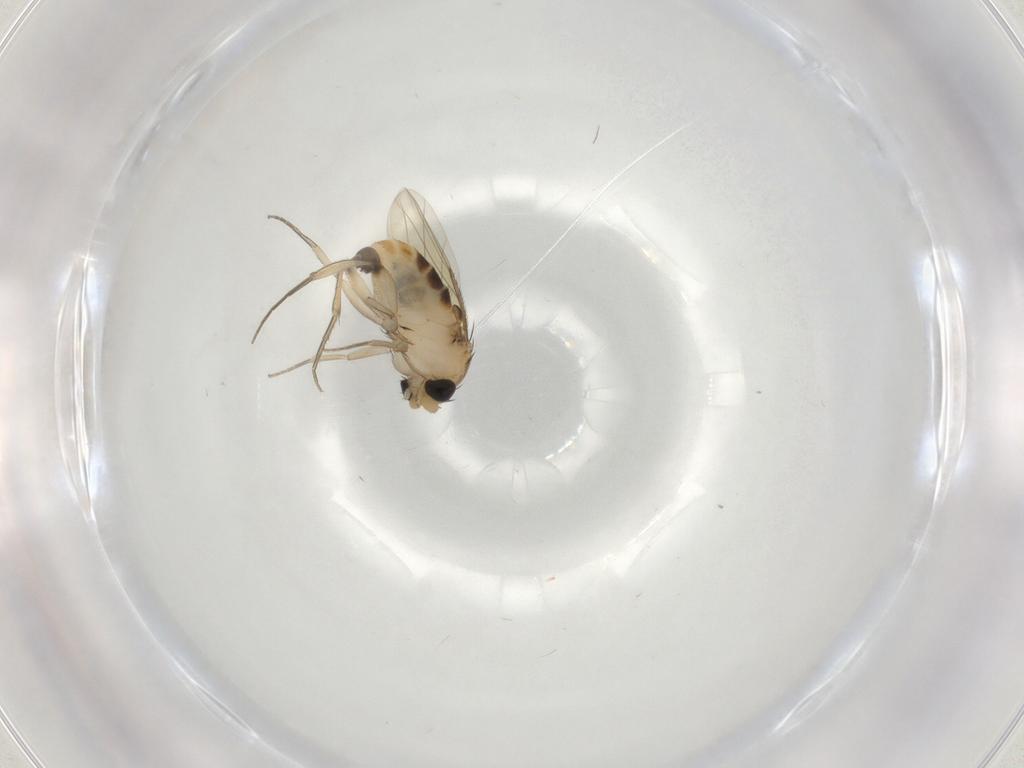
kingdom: Animalia
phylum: Arthropoda
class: Insecta
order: Diptera
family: Phoridae
